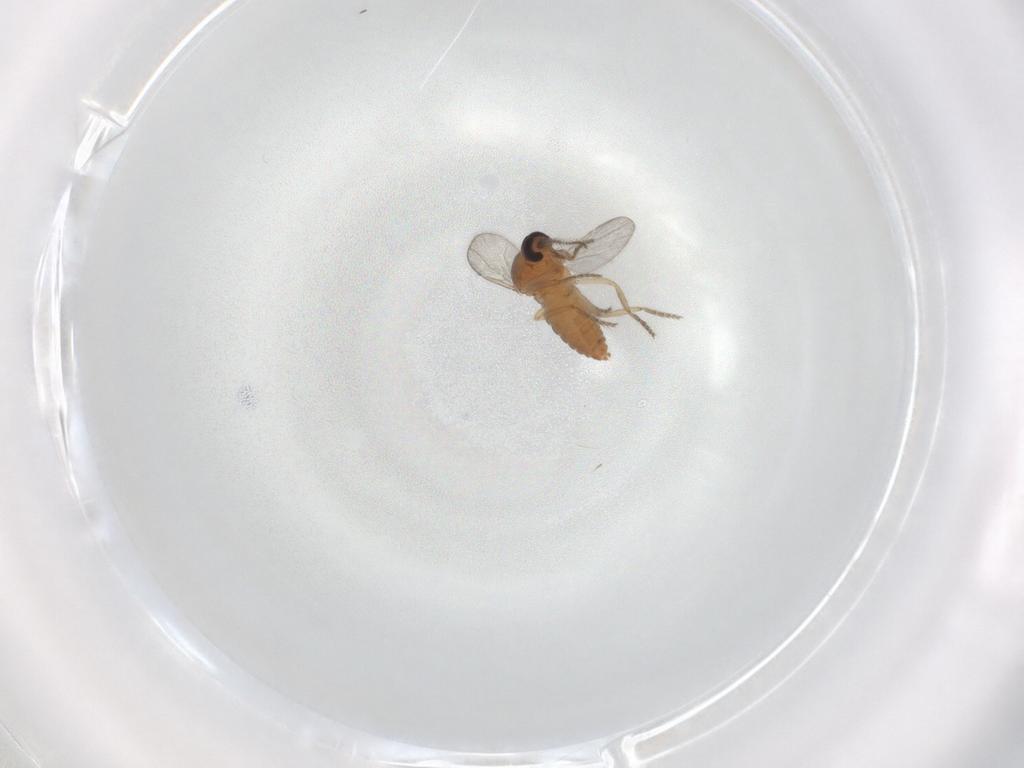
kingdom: Animalia
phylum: Arthropoda
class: Insecta
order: Diptera
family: Ceratopogonidae
